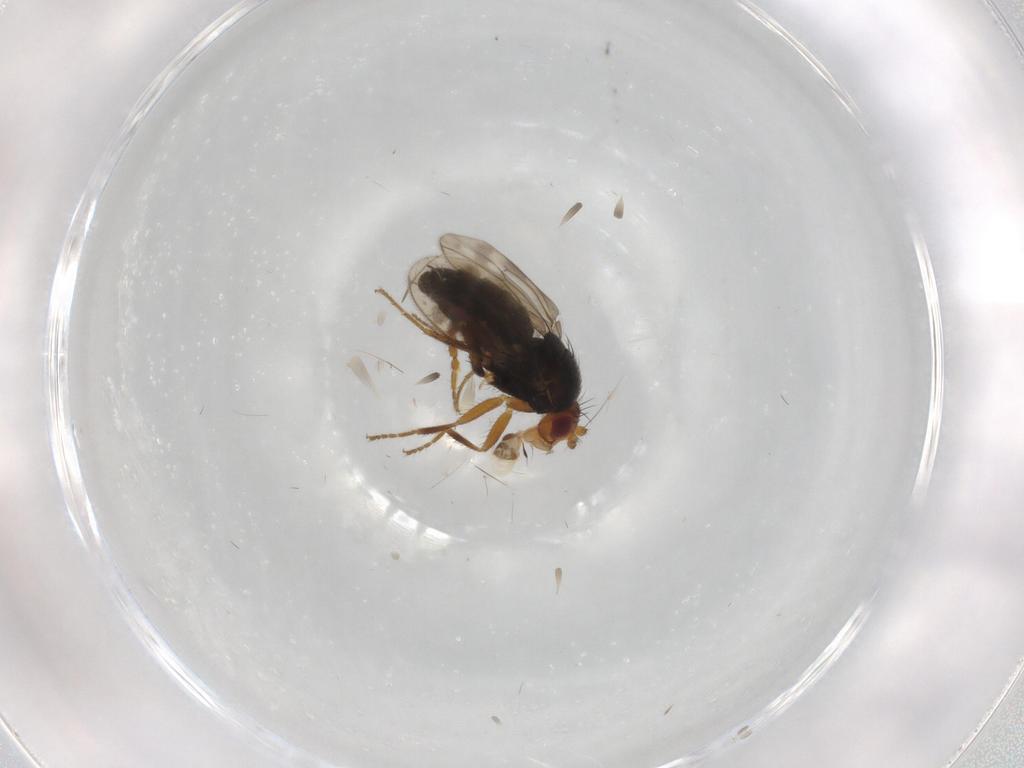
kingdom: Animalia
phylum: Arthropoda
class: Insecta
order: Diptera
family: Sphaeroceridae
